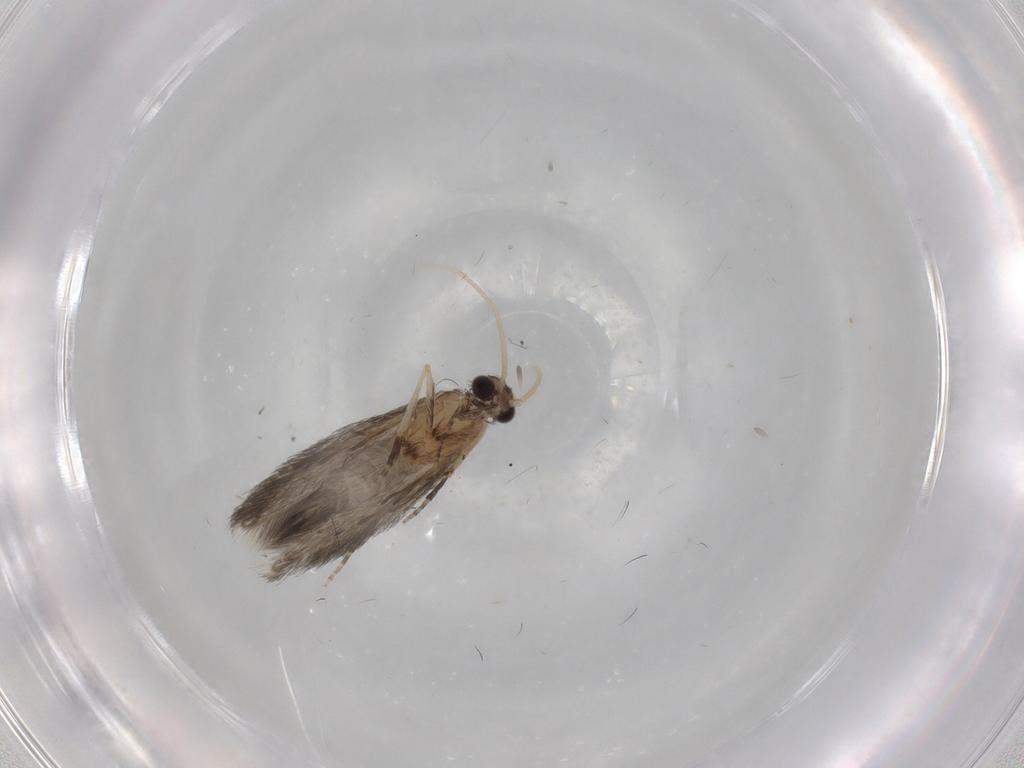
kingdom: Animalia
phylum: Arthropoda
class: Insecta
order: Trichoptera
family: Hydroptilidae
